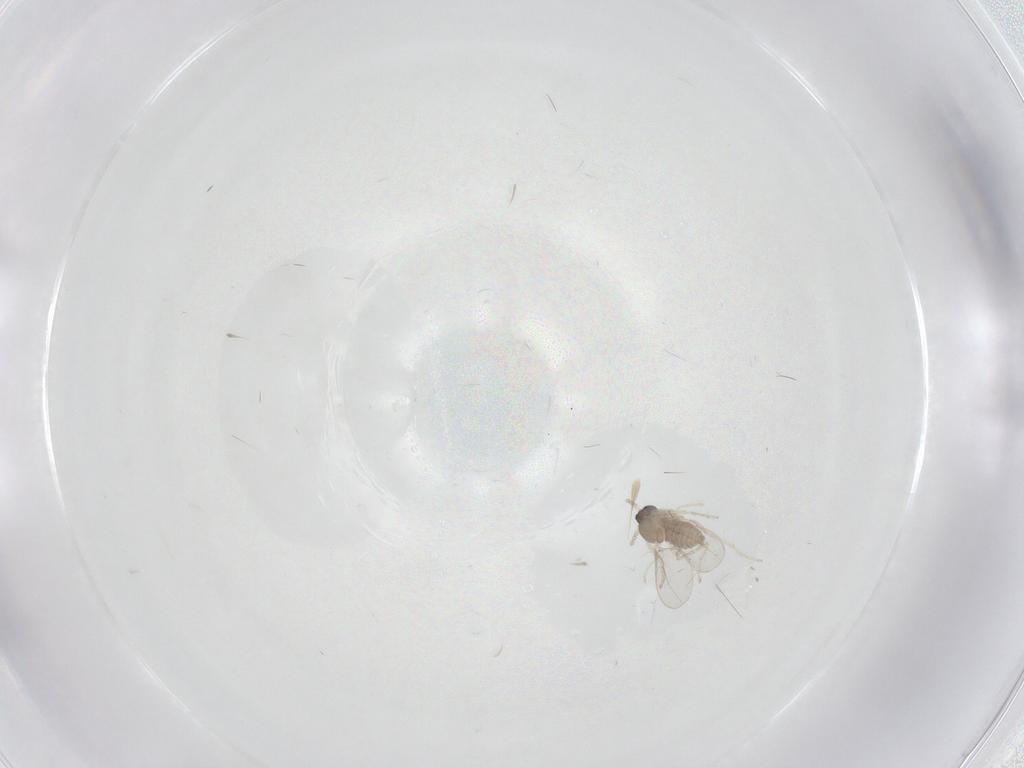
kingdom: Animalia
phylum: Arthropoda
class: Insecta
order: Diptera
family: Cecidomyiidae
